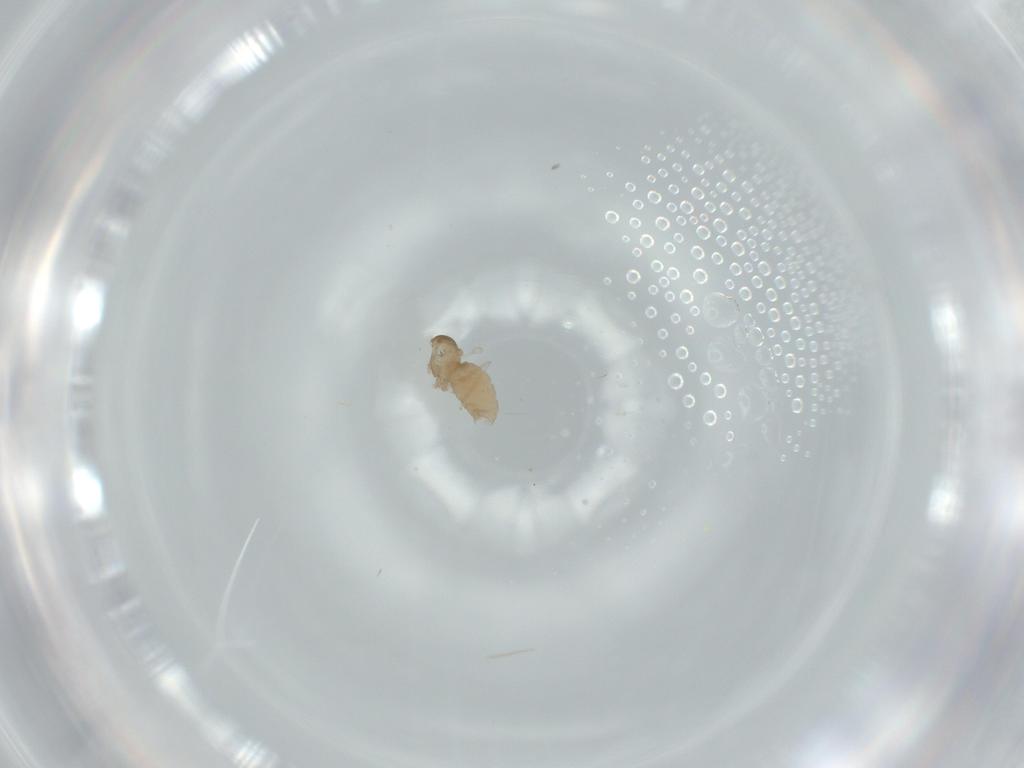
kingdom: Animalia
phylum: Arthropoda
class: Insecta
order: Diptera
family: Cecidomyiidae
